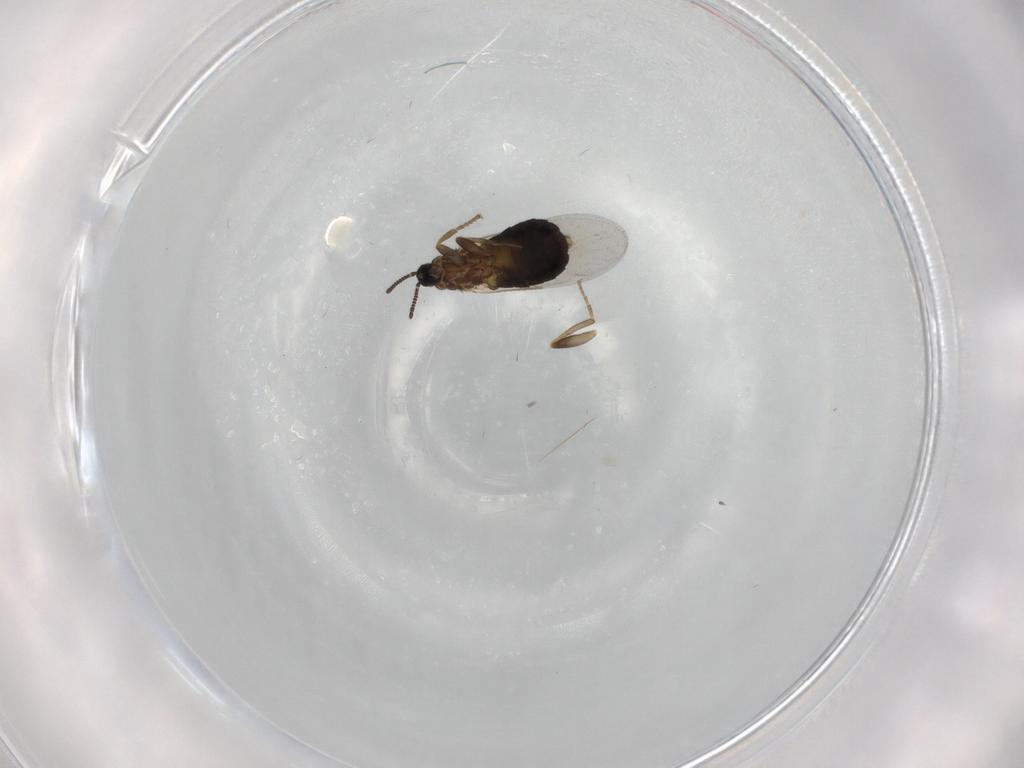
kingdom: Animalia
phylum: Arthropoda
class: Insecta
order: Diptera
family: Scatopsidae
